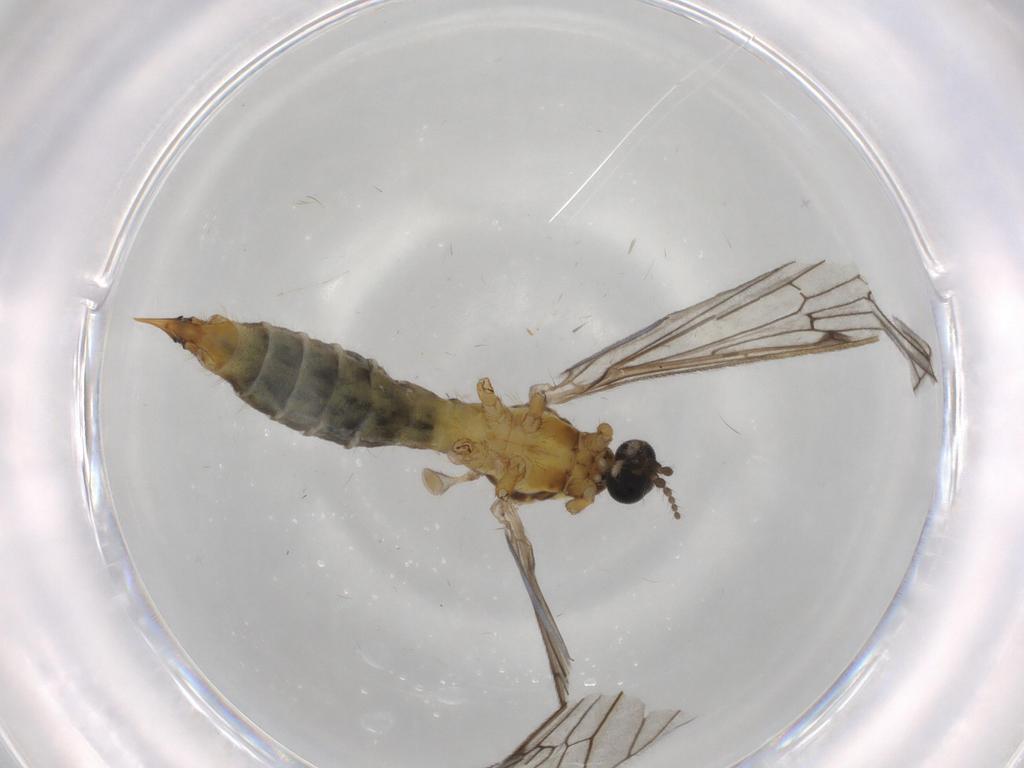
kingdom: Animalia
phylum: Arthropoda
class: Insecta
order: Diptera
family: Limoniidae
